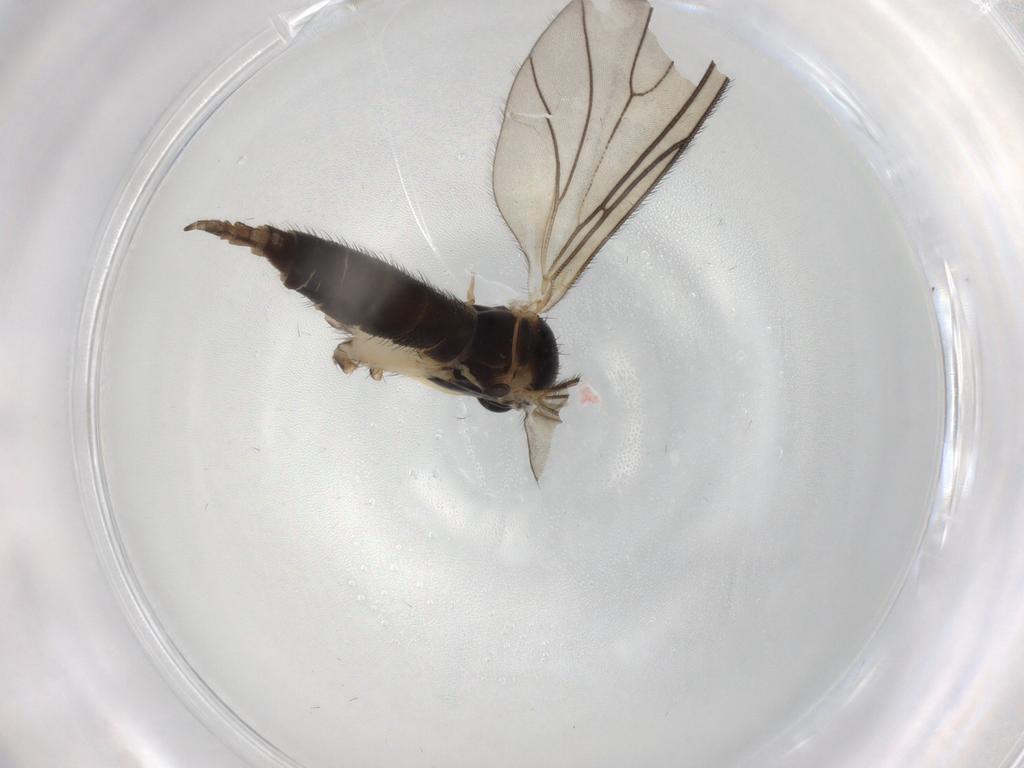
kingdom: Animalia
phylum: Arthropoda
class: Insecta
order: Diptera
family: Sciaridae
